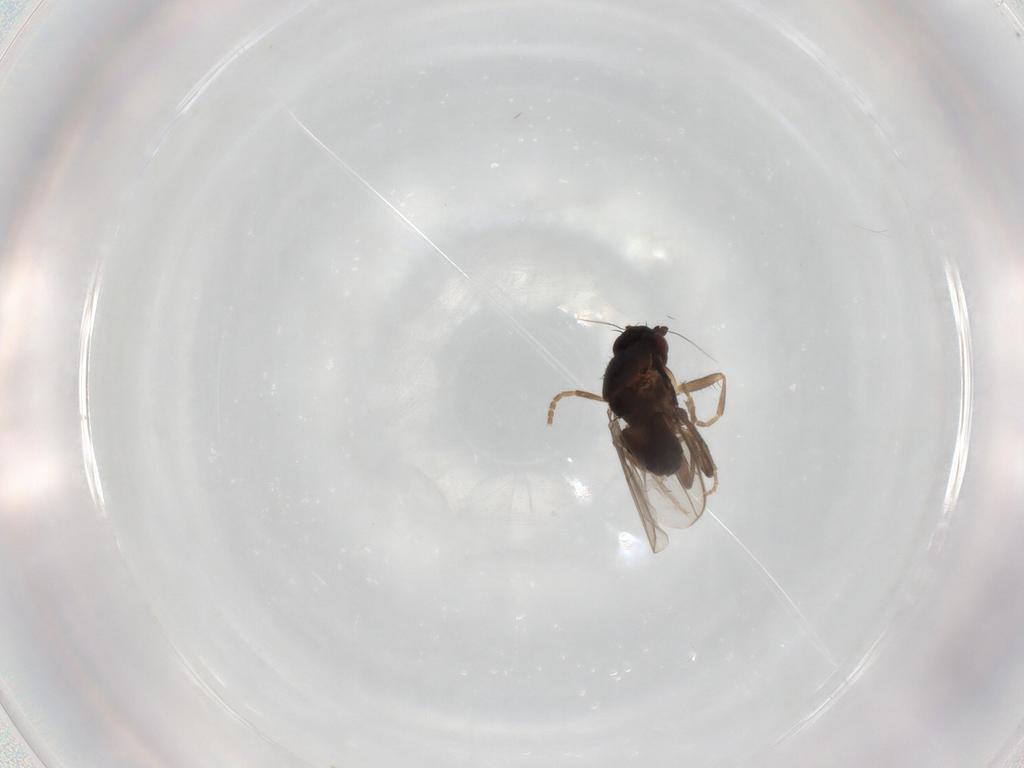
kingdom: Animalia
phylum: Arthropoda
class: Insecta
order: Diptera
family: Sphaeroceridae
